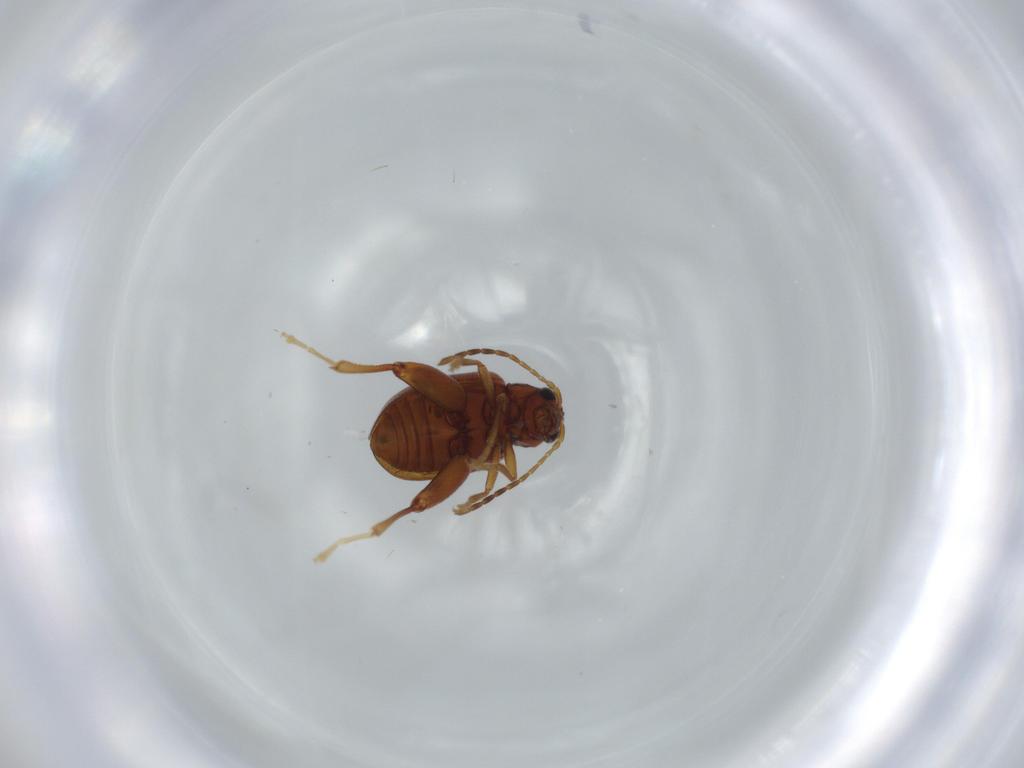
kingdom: Animalia
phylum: Arthropoda
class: Insecta
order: Coleoptera
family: Chrysomelidae
